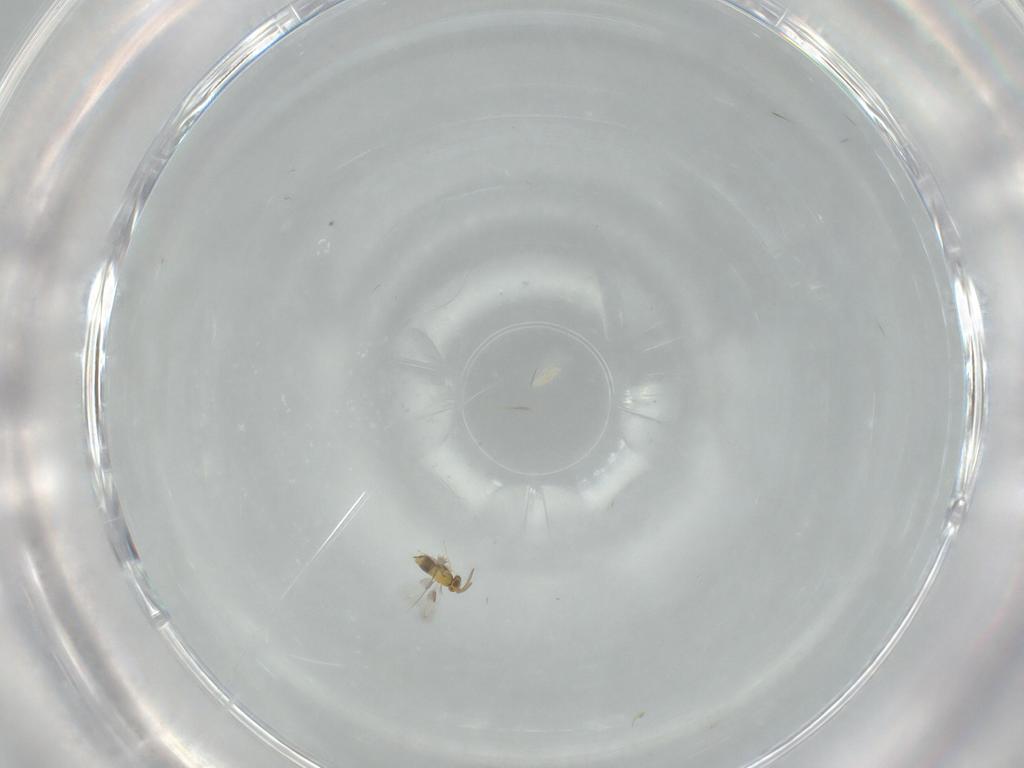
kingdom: Animalia
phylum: Arthropoda
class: Insecta
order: Hymenoptera
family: Aphelinidae
